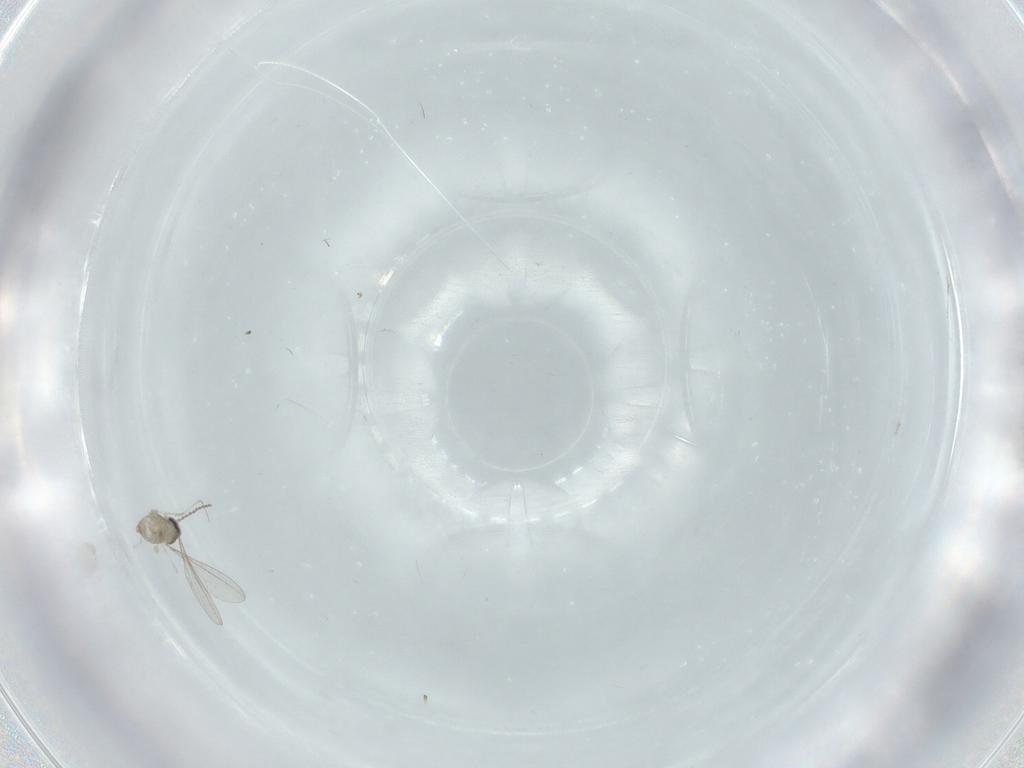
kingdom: Animalia
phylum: Arthropoda
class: Insecta
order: Diptera
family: Cecidomyiidae
